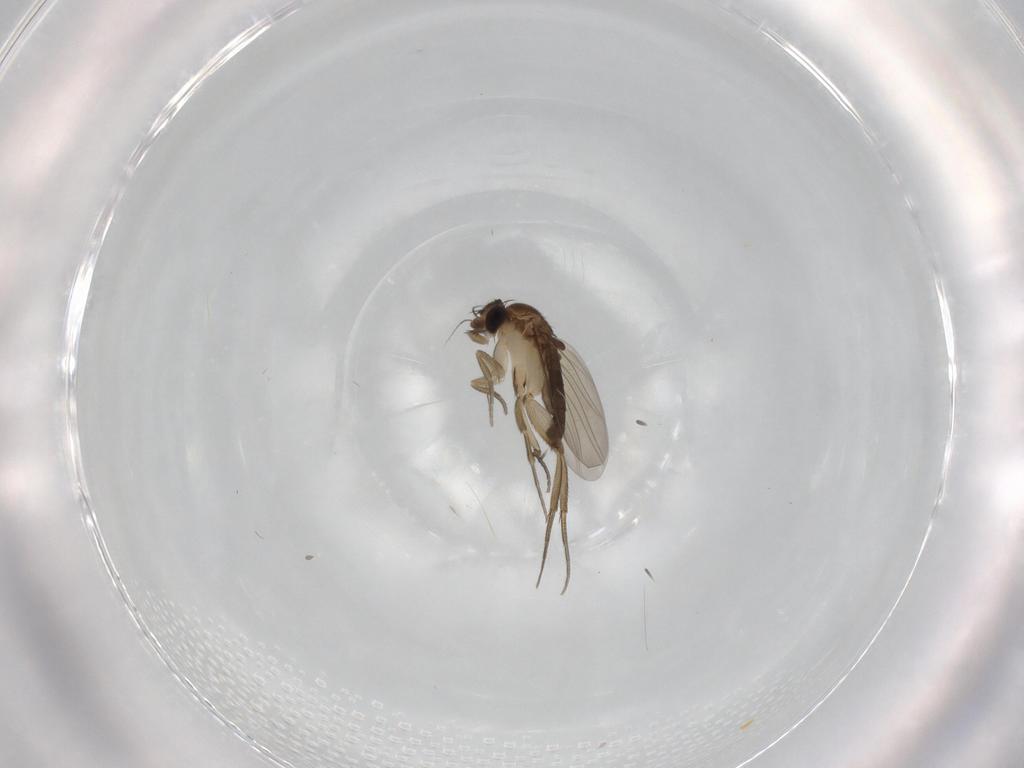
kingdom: Animalia
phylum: Arthropoda
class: Insecta
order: Diptera
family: Phoridae
